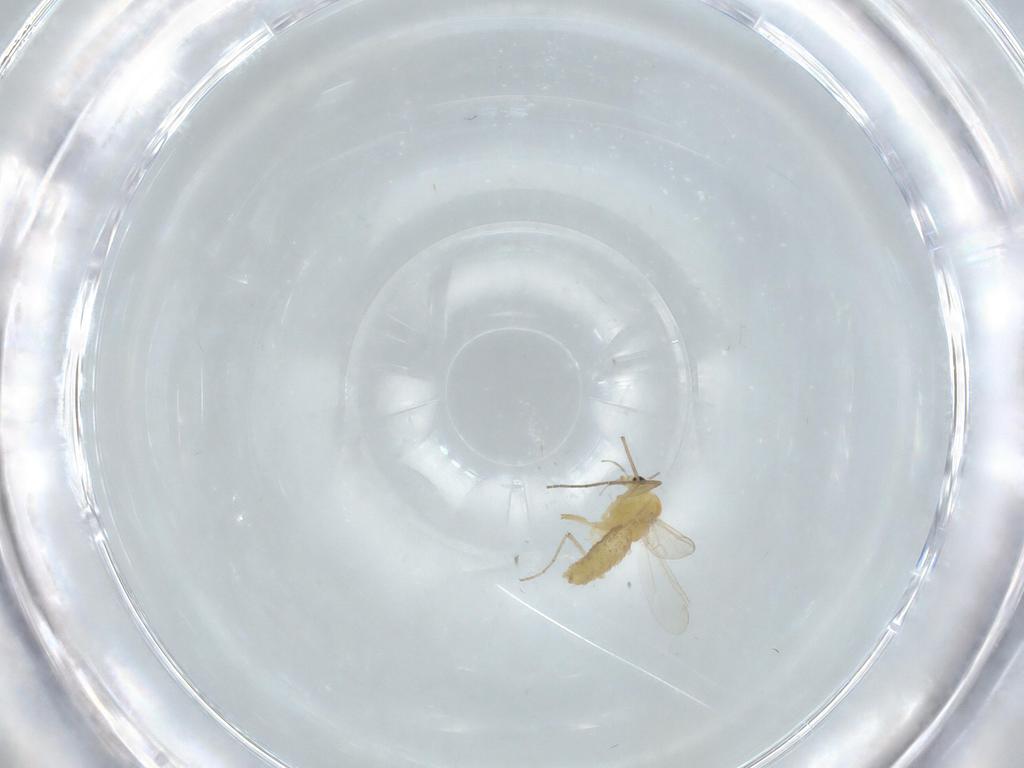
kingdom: Animalia
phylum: Arthropoda
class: Insecta
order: Diptera
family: Chironomidae
